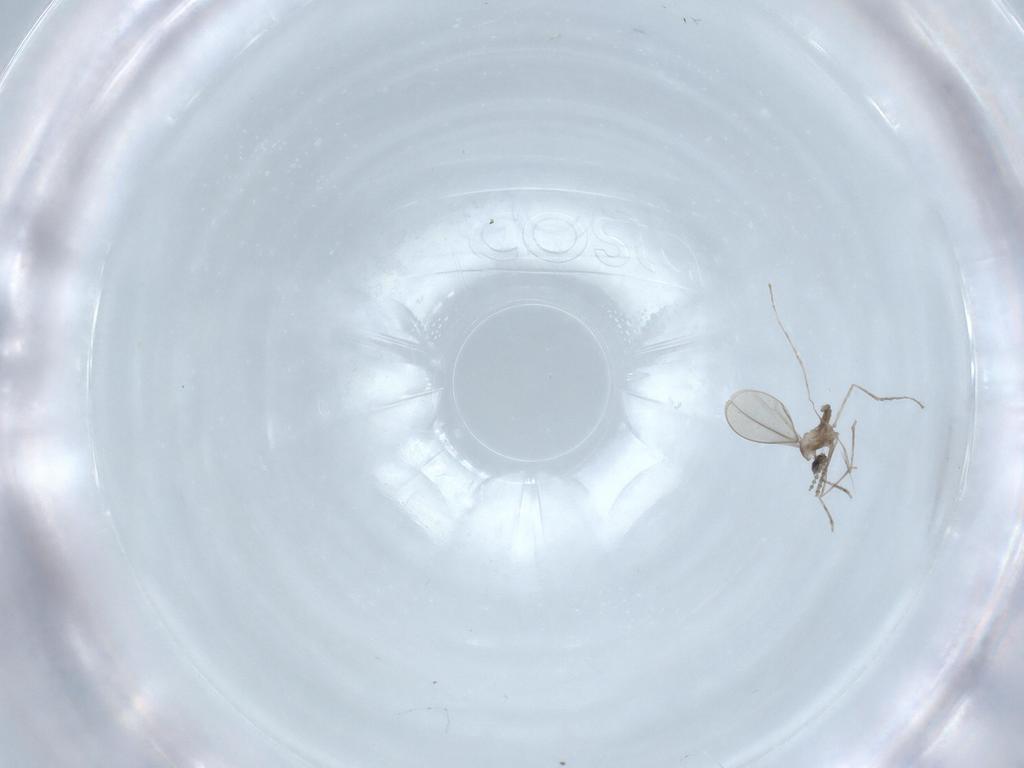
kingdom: Animalia
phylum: Arthropoda
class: Insecta
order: Diptera
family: Cecidomyiidae
